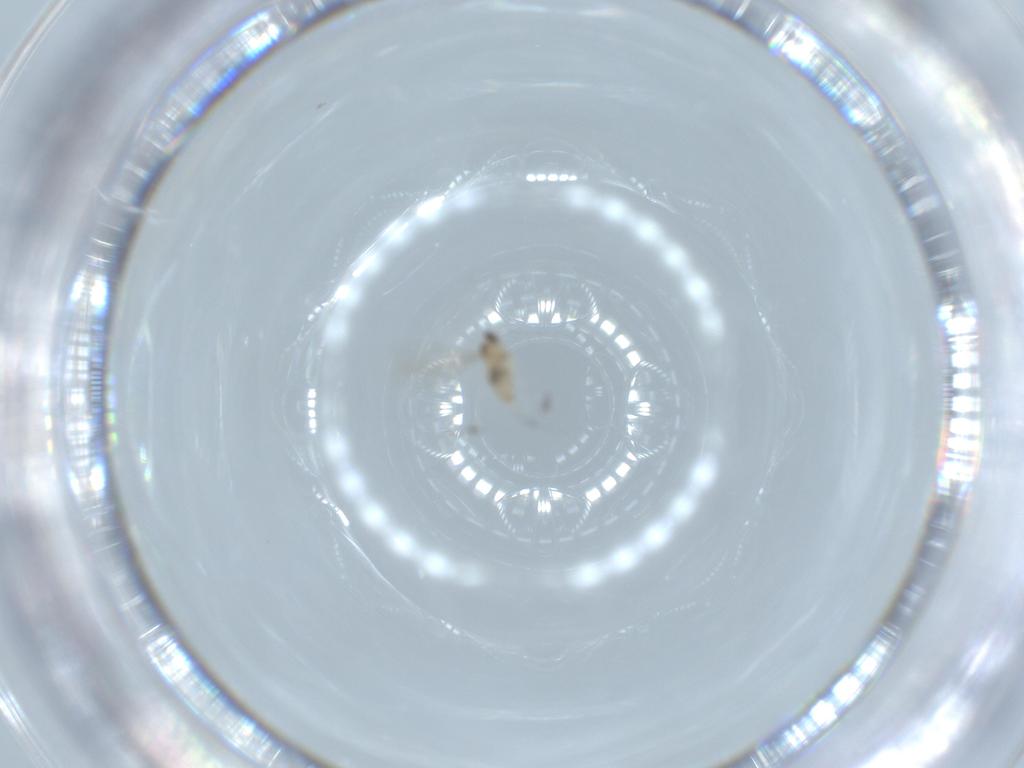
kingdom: Animalia
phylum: Arthropoda
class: Insecta
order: Diptera
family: Cecidomyiidae
